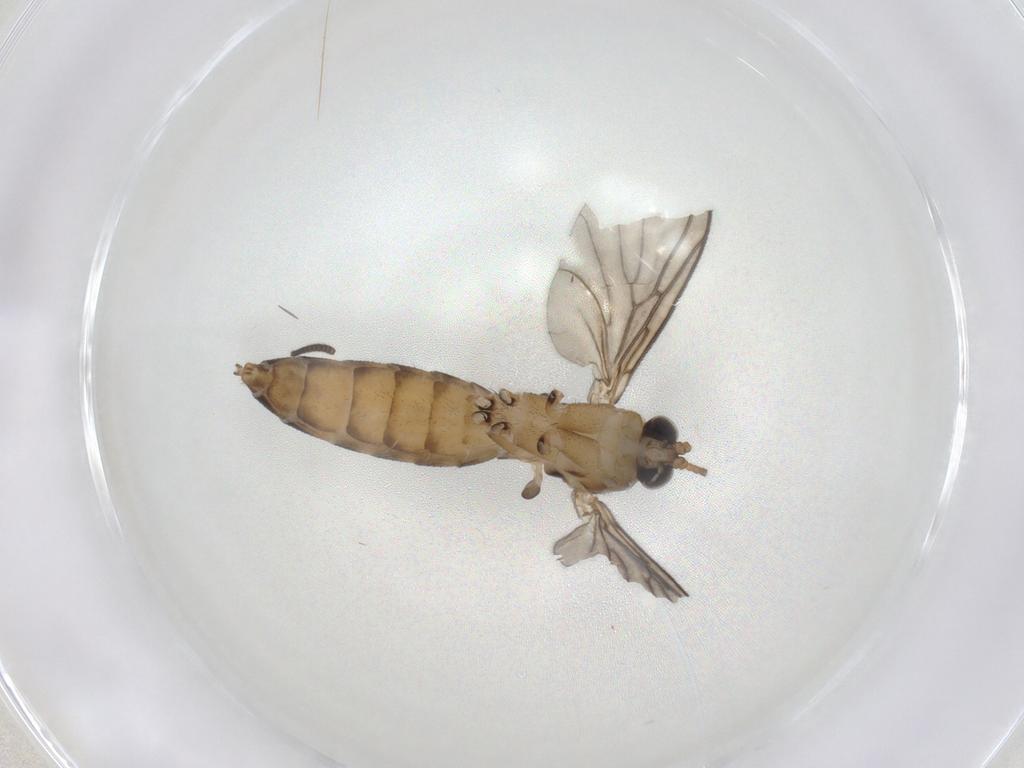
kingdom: Animalia
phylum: Arthropoda
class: Insecta
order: Diptera
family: Mycetophilidae
